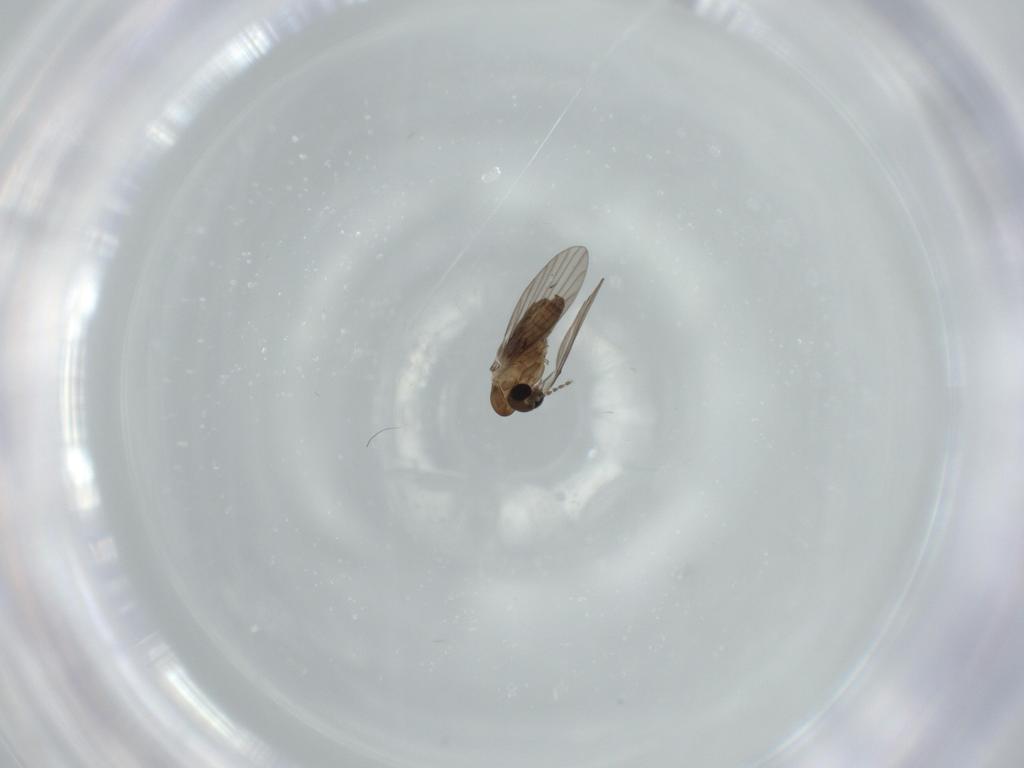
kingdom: Animalia
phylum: Arthropoda
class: Insecta
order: Diptera
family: Psychodidae
